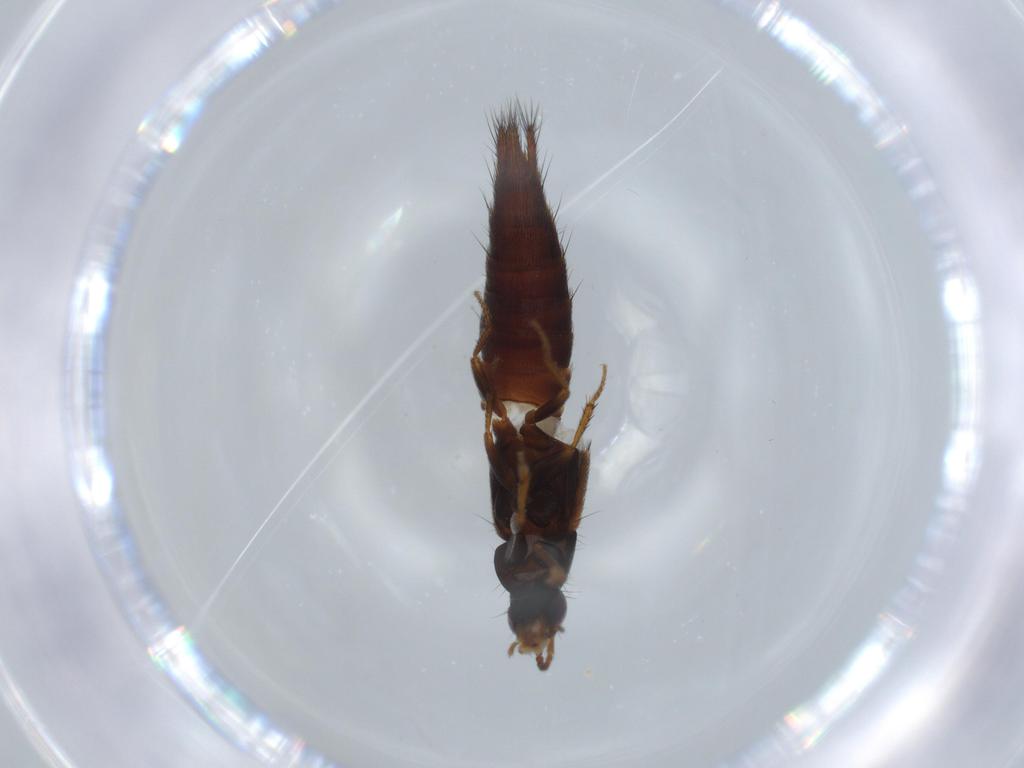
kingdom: Animalia
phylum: Arthropoda
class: Insecta
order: Coleoptera
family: Staphylinidae
